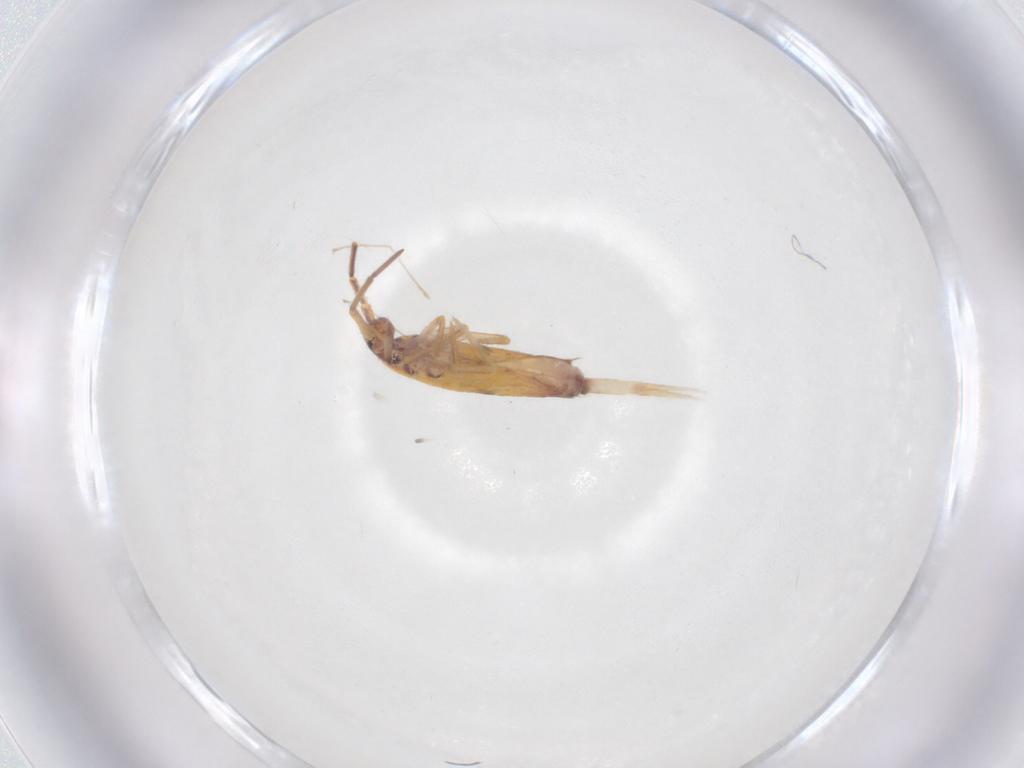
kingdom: Animalia
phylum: Arthropoda
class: Collembola
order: Entomobryomorpha
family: Entomobryidae
